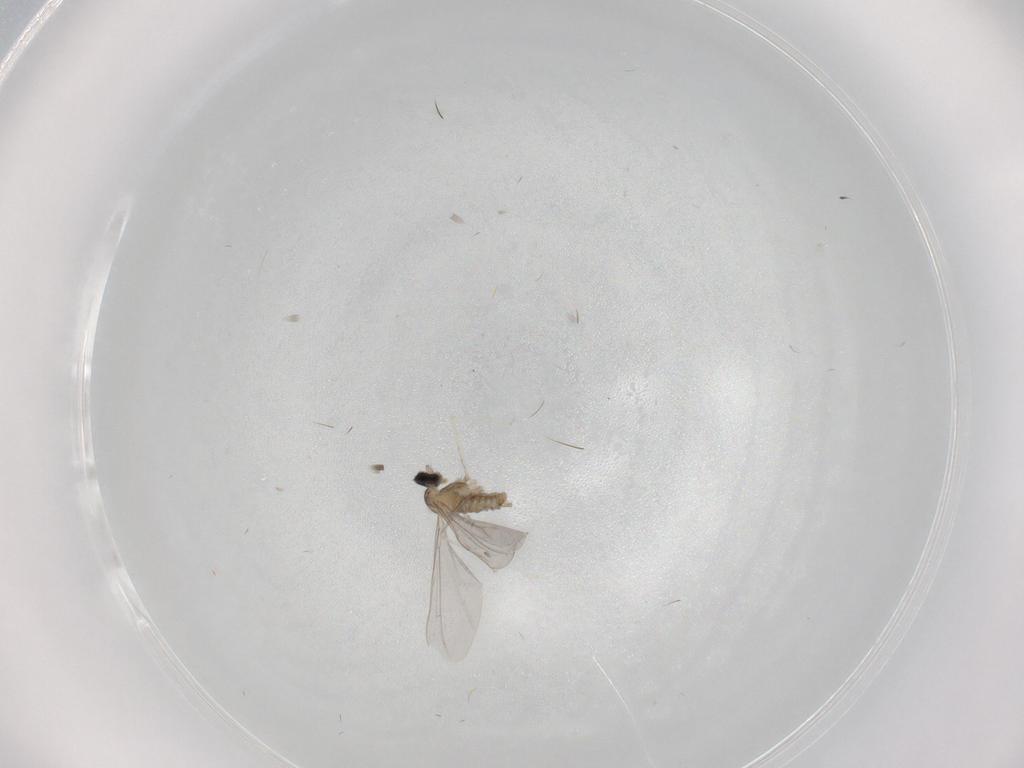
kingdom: Animalia
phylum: Arthropoda
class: Insecta
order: Diptera
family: Cecidomyiidae
